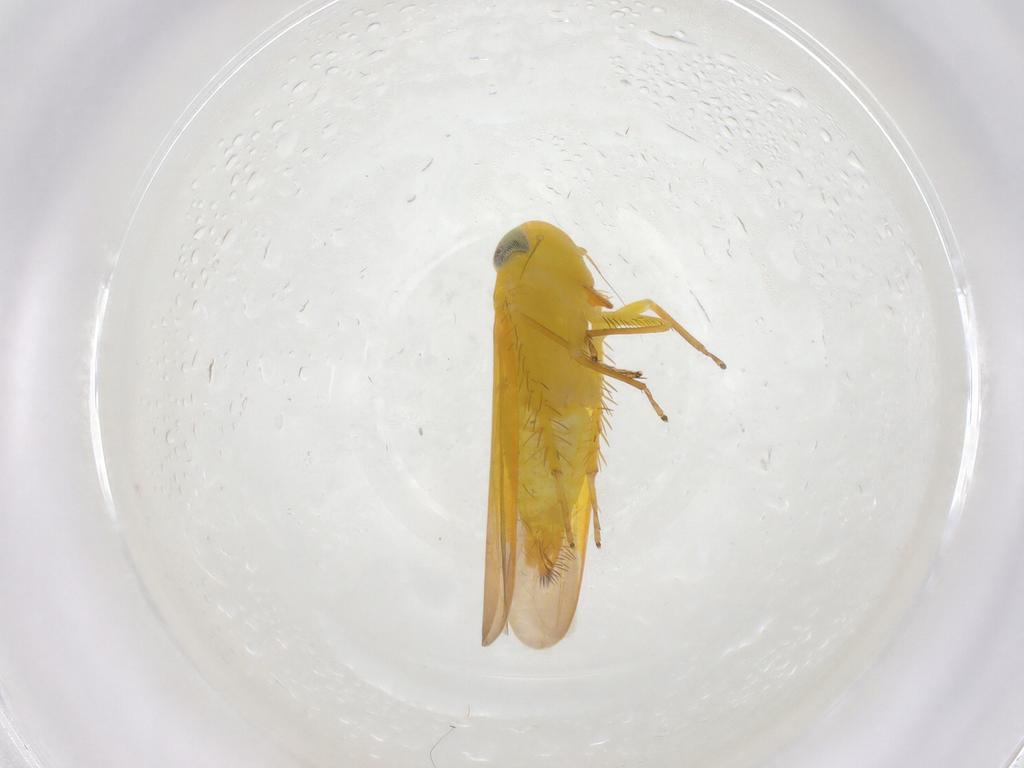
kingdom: Animalia
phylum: Arthropoda
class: Insecta
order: Hemiptera
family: Cicadellidae
